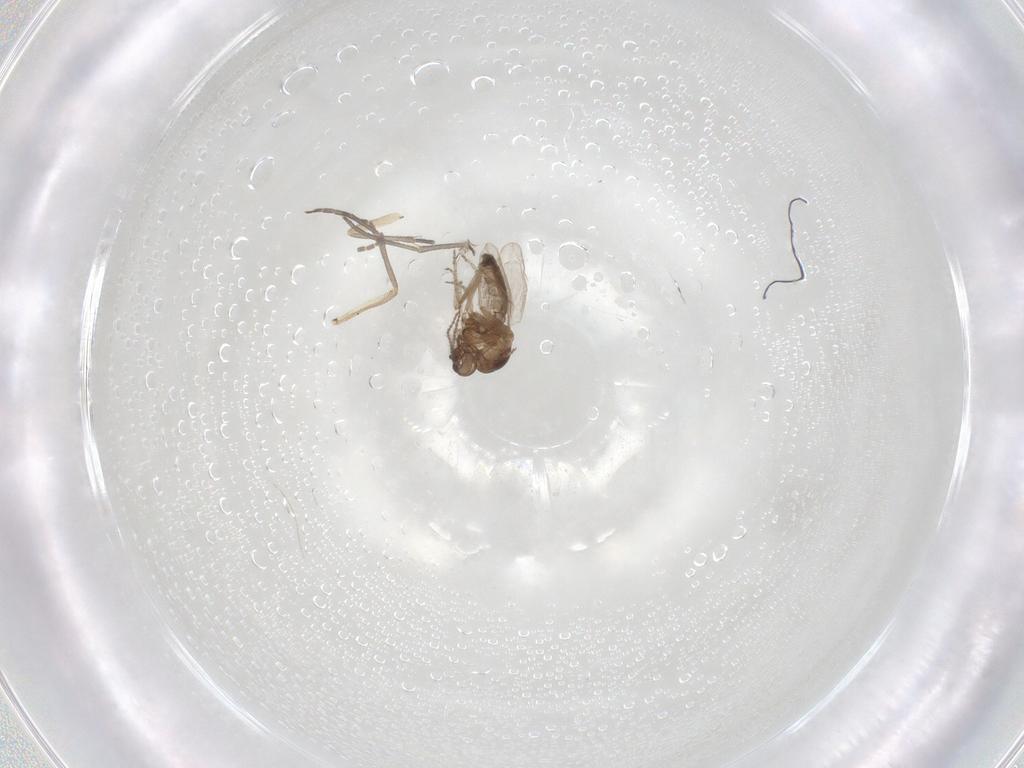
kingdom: Animalia
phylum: Arthropoda
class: Insecta
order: Diptera
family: Ceratopogonidae
